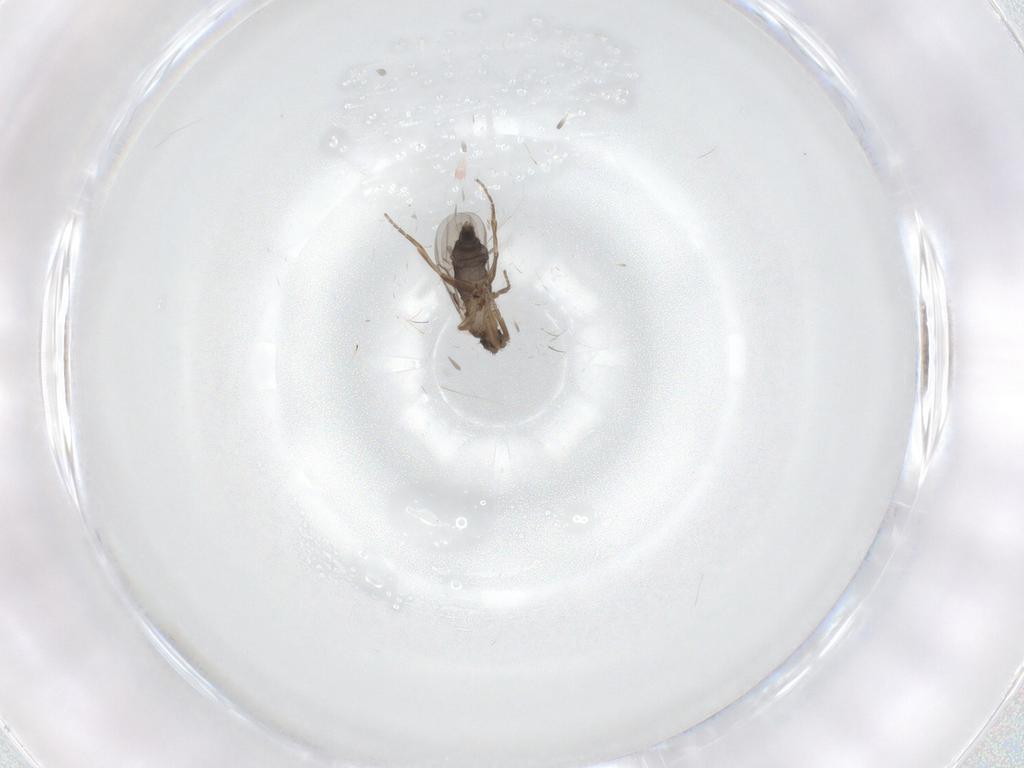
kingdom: Animalia
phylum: Arthropoda
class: Insecta
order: Diptera
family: Phoridae
